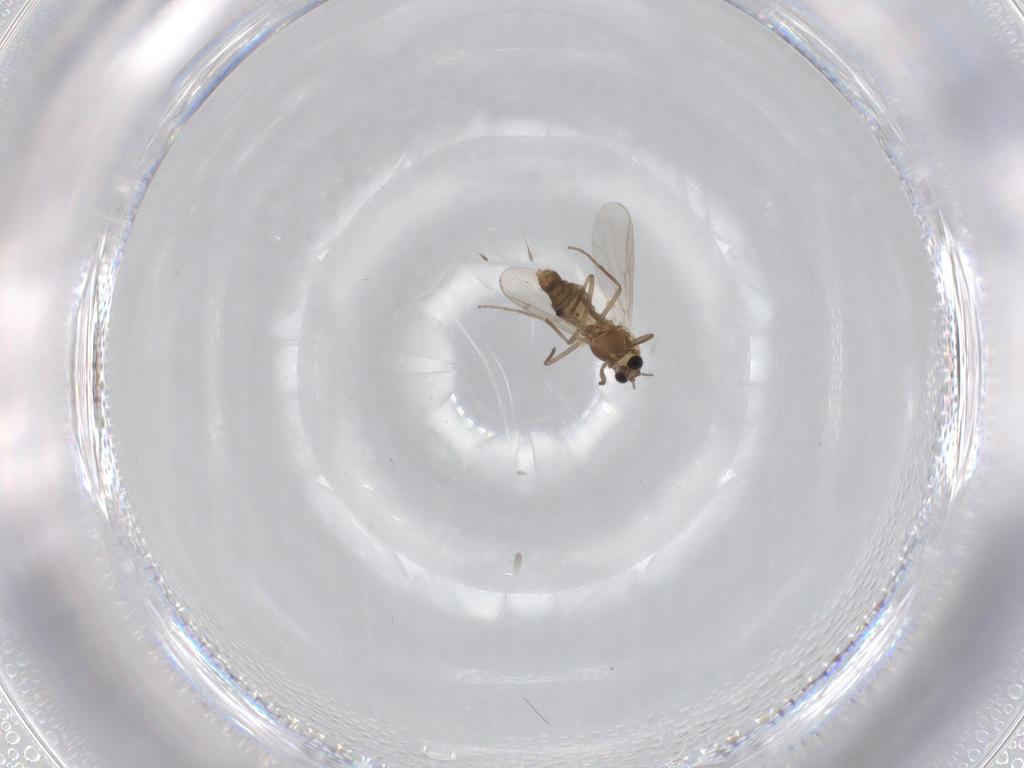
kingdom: Animalia
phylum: Arthropoda
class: Insecta
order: Diptera
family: Chironomidae
